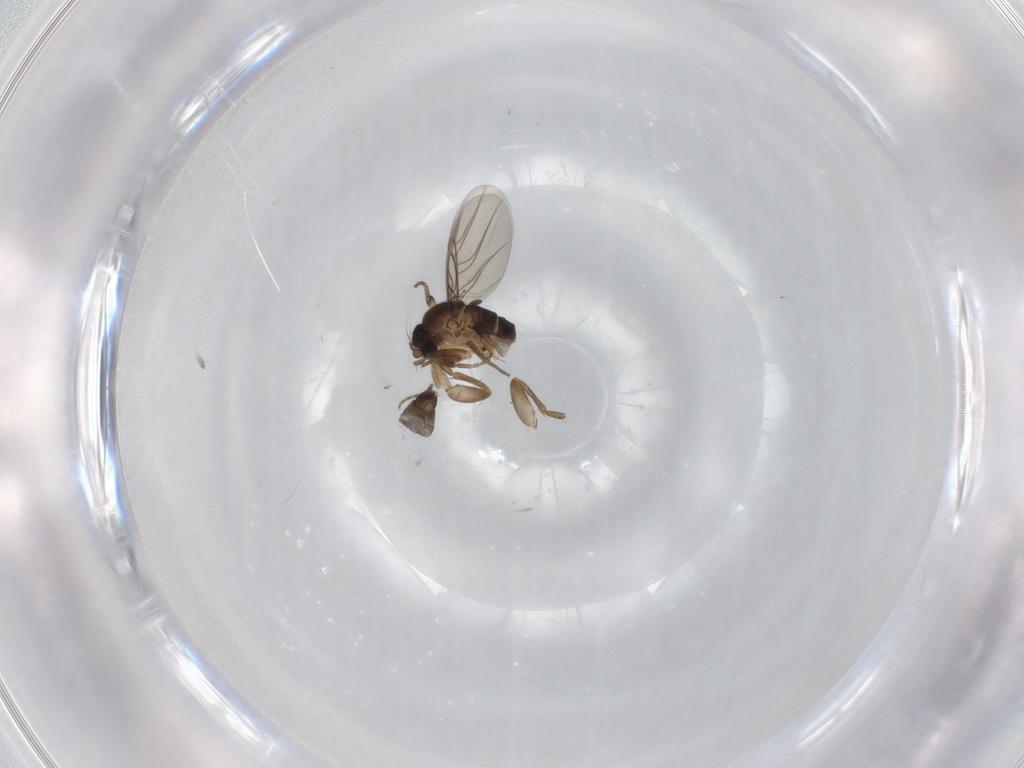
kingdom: Animalia
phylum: Arthropoda
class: Insecta
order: Diptera
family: Phoridae
